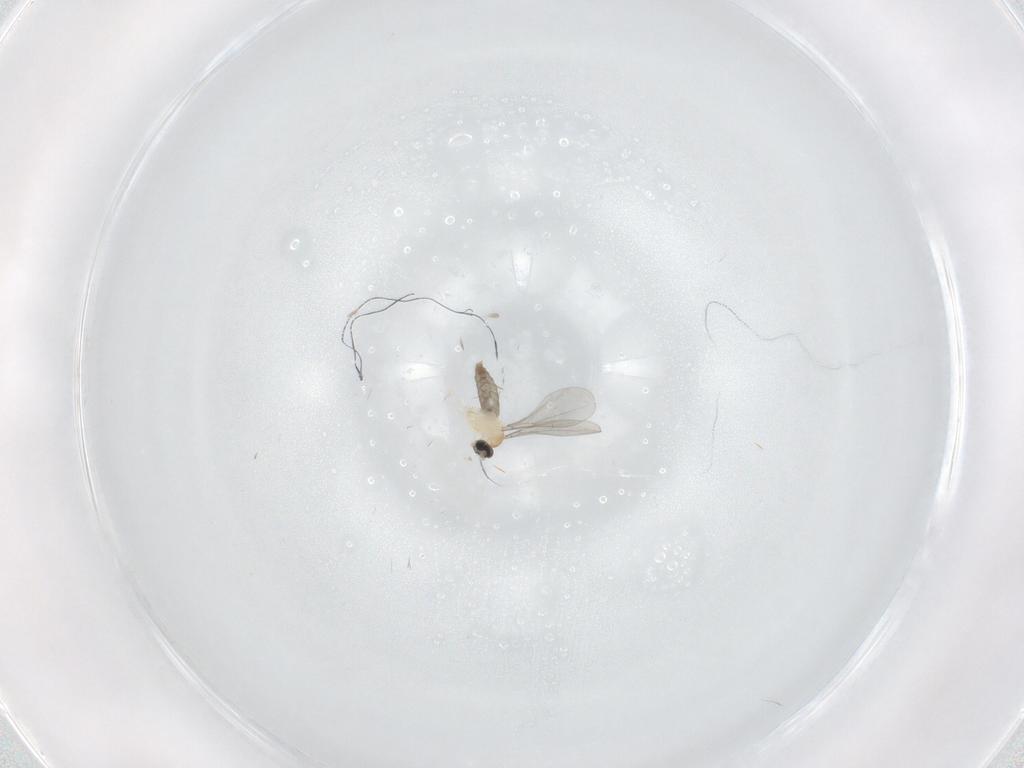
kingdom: Animalia
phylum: Arthropoda
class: Insecta
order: Diptera
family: Cecidomyiidae
